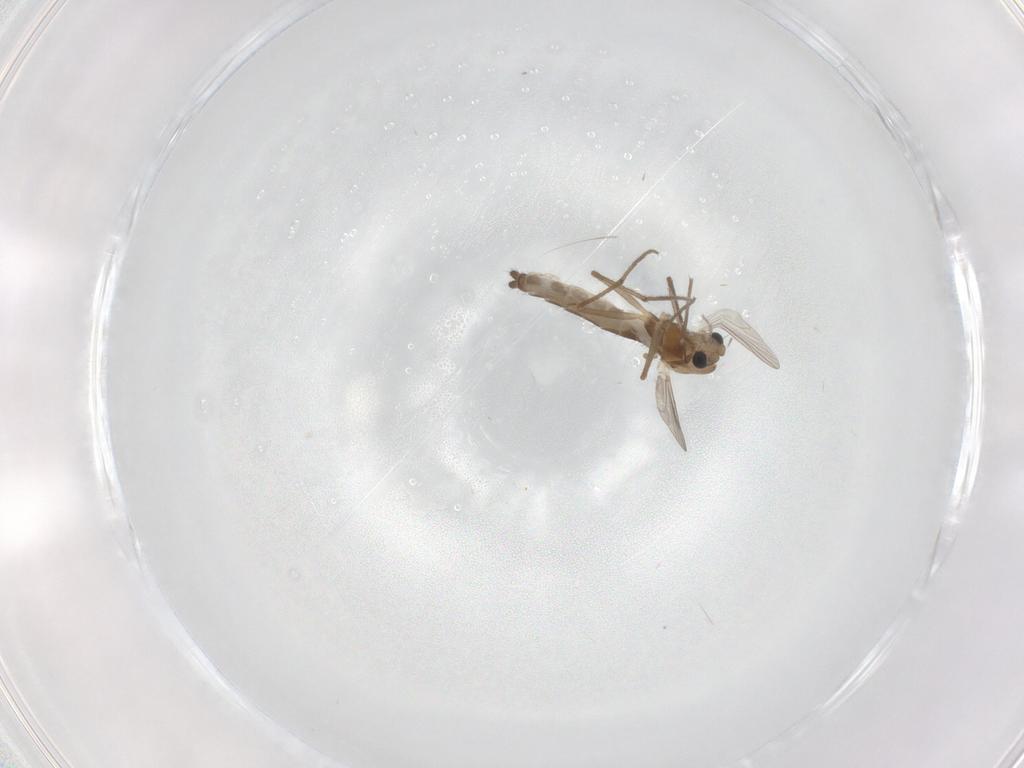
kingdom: Animalia
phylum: Arthropoda
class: Insecta
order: Diptera
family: Chironomidae
